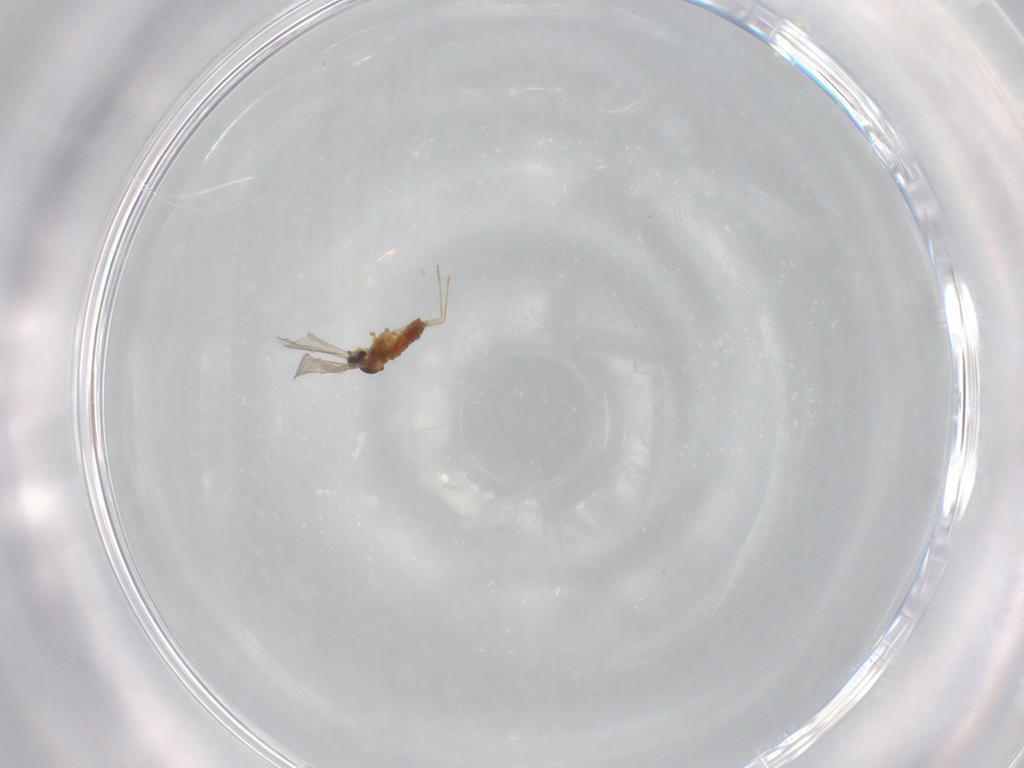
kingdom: Animalia
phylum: Arthropoda
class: Insecta
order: Diptera
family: Cecidomyiidae
